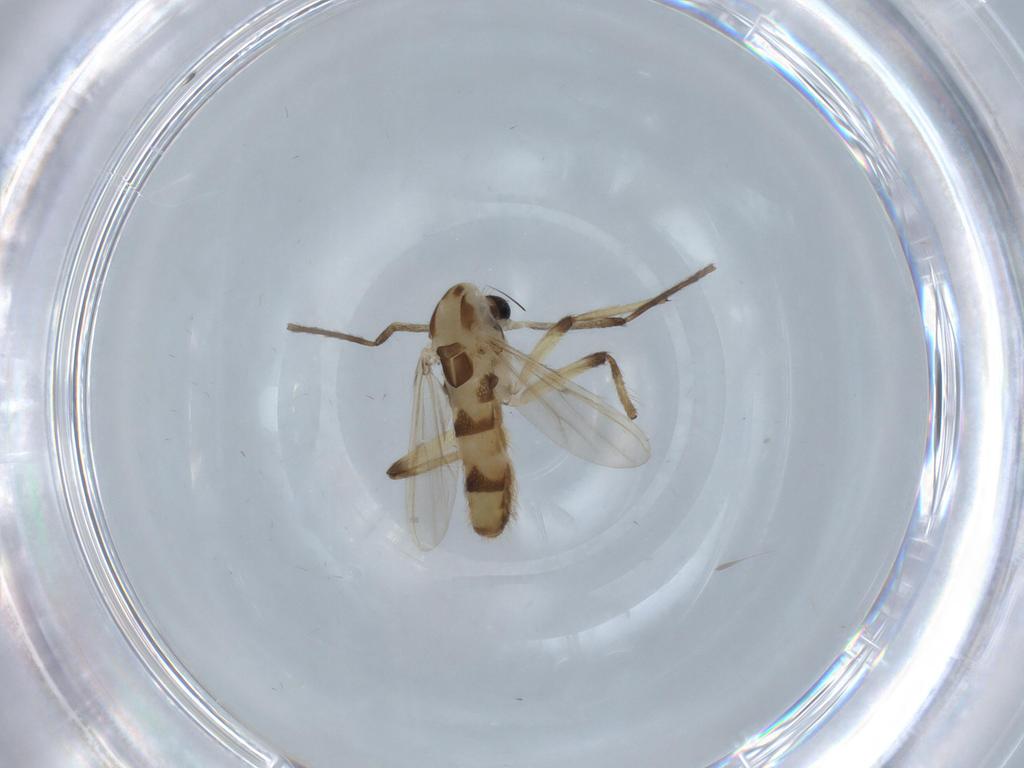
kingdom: Animalia
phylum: Arthropoda
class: Insecta
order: Diptera
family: Chironomidae
